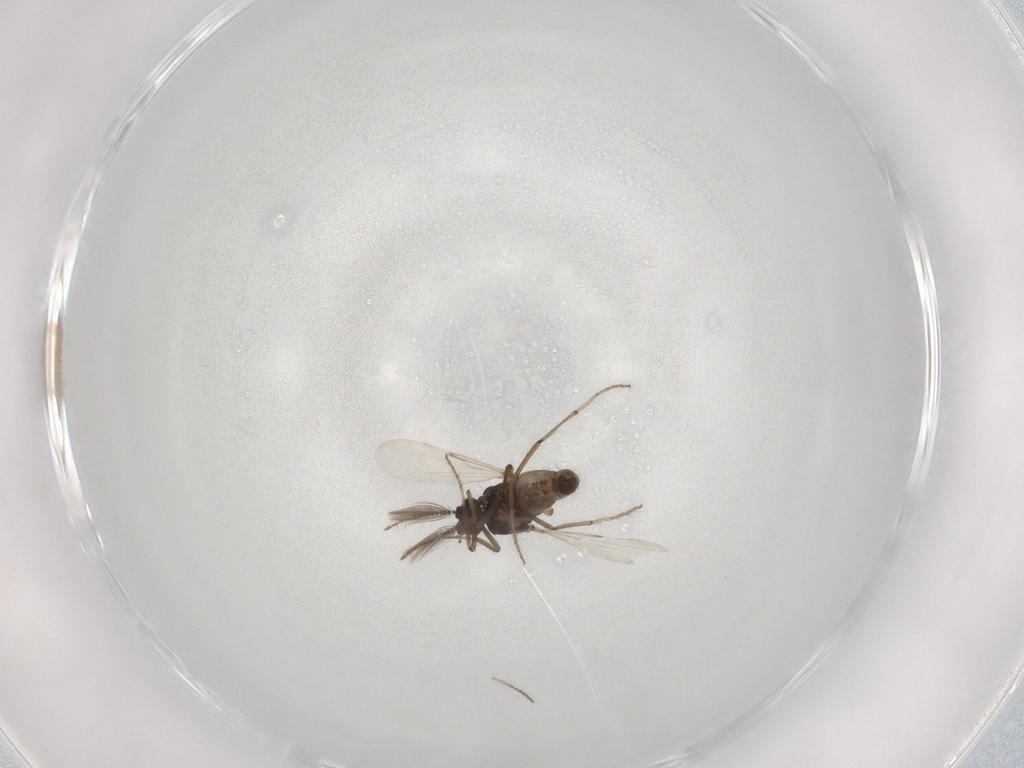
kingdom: Animalia
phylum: Arthropoda
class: Insecta
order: Diptera
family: Chironomidae
